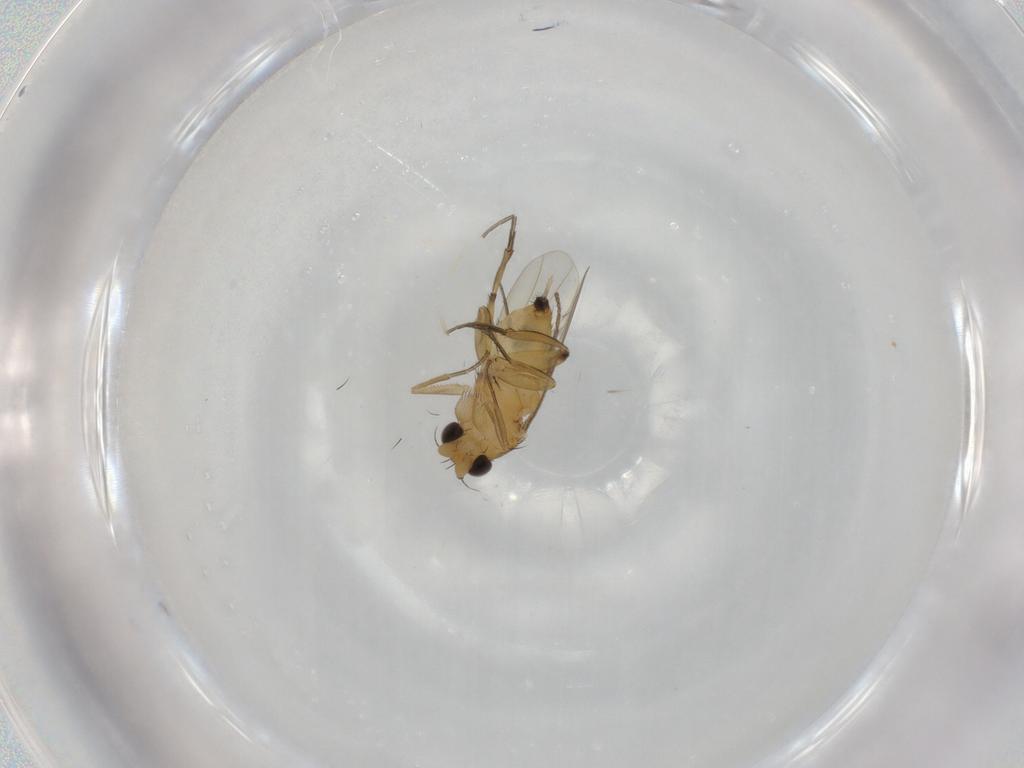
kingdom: Animalia
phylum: Arthropoda
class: Insecta
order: Diptera
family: Phoridae
